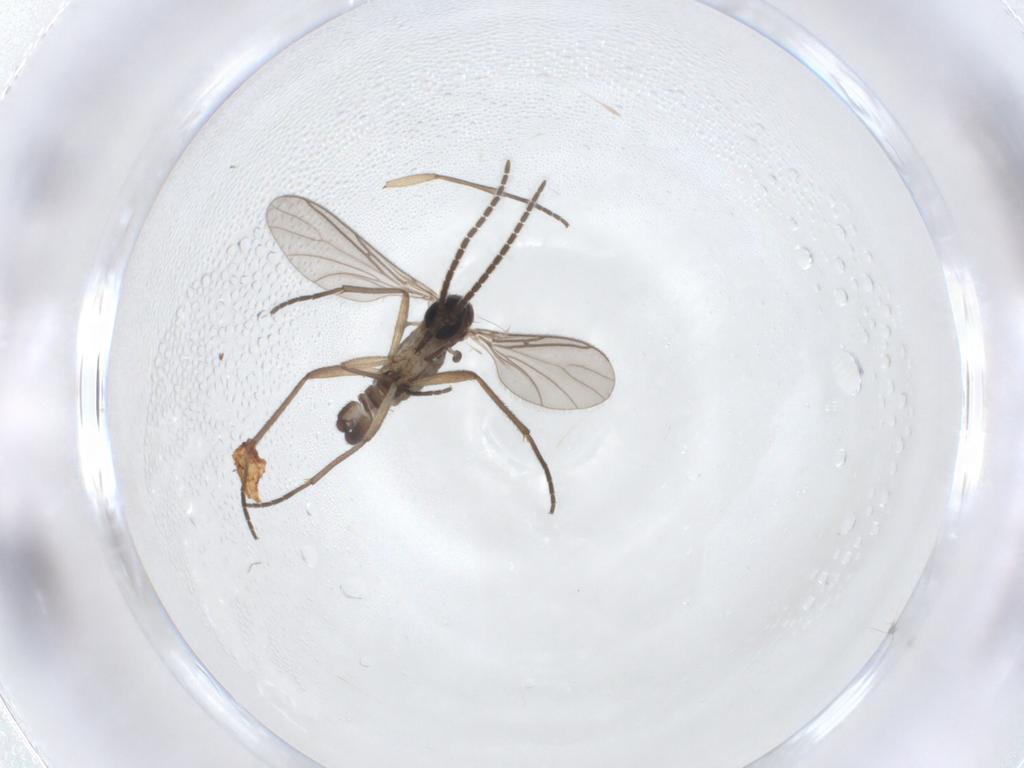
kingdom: Animalia
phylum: Arthropoda
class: Insecta
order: Diptera
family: Sciaridae
